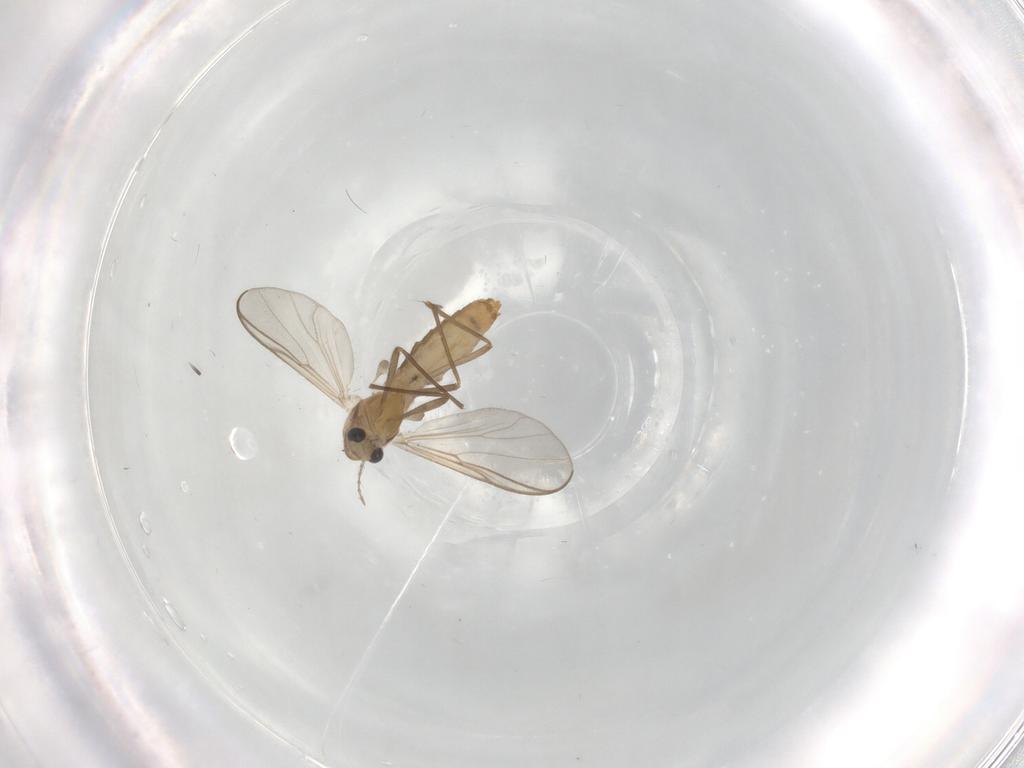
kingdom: Animalia
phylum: Arthropoda
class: Insecta
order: Diptera
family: Chironomidae
